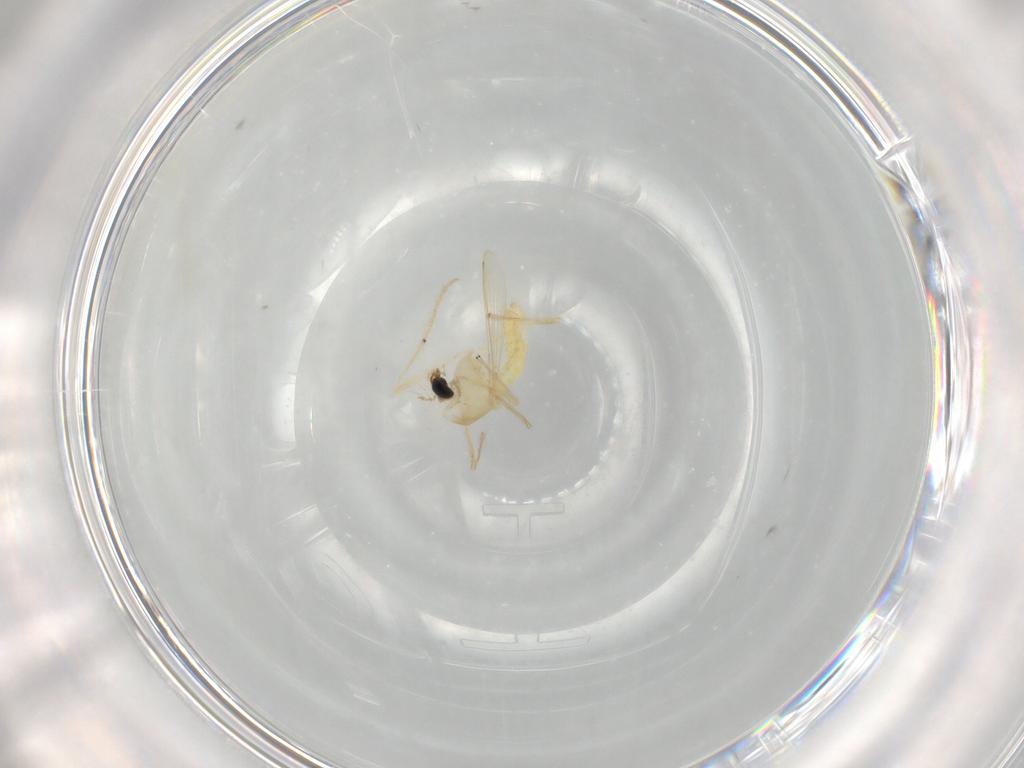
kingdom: Animalia
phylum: Arthropoda
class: Insecta
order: Diptera
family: Chironomidae
